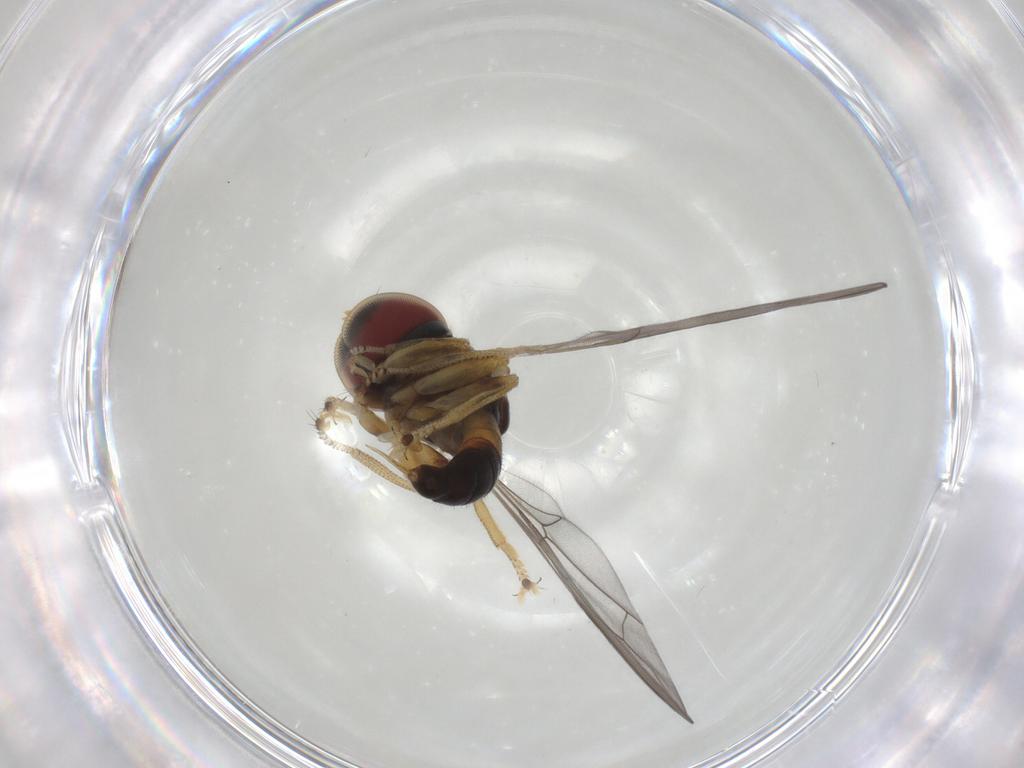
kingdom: Animalia
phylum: Arthropoda
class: Insecta
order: Diptera
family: Pipunculidae
